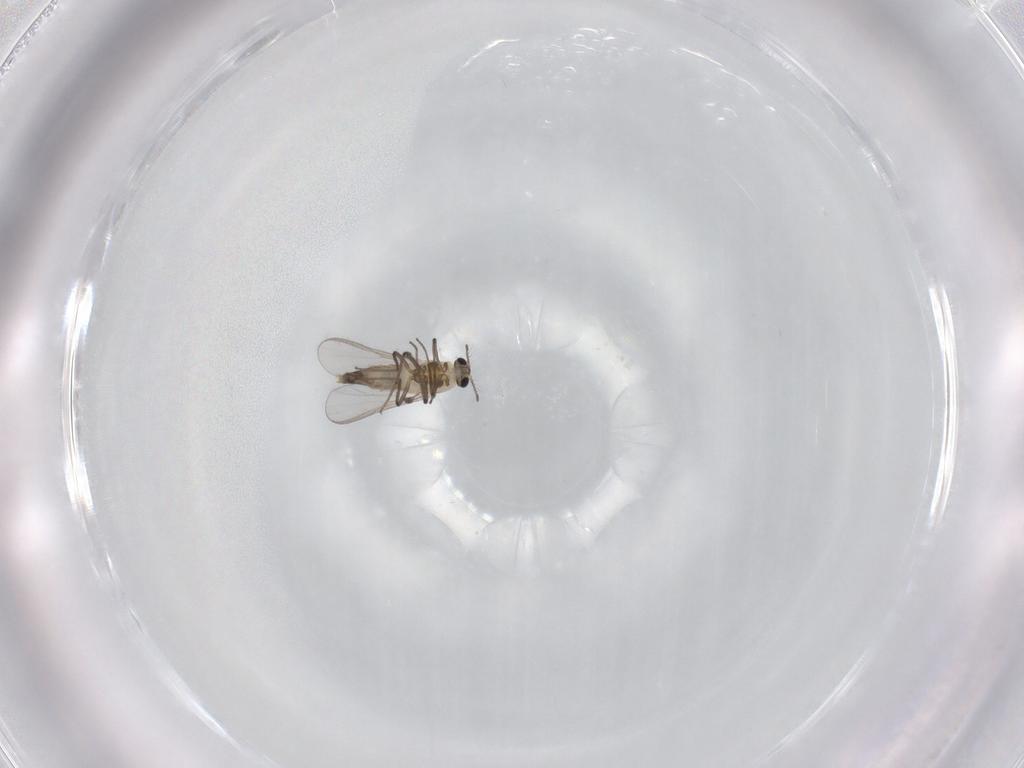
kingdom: Animalia
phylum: Arthropoda
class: Insecta
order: Diptera
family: Chironomidae
